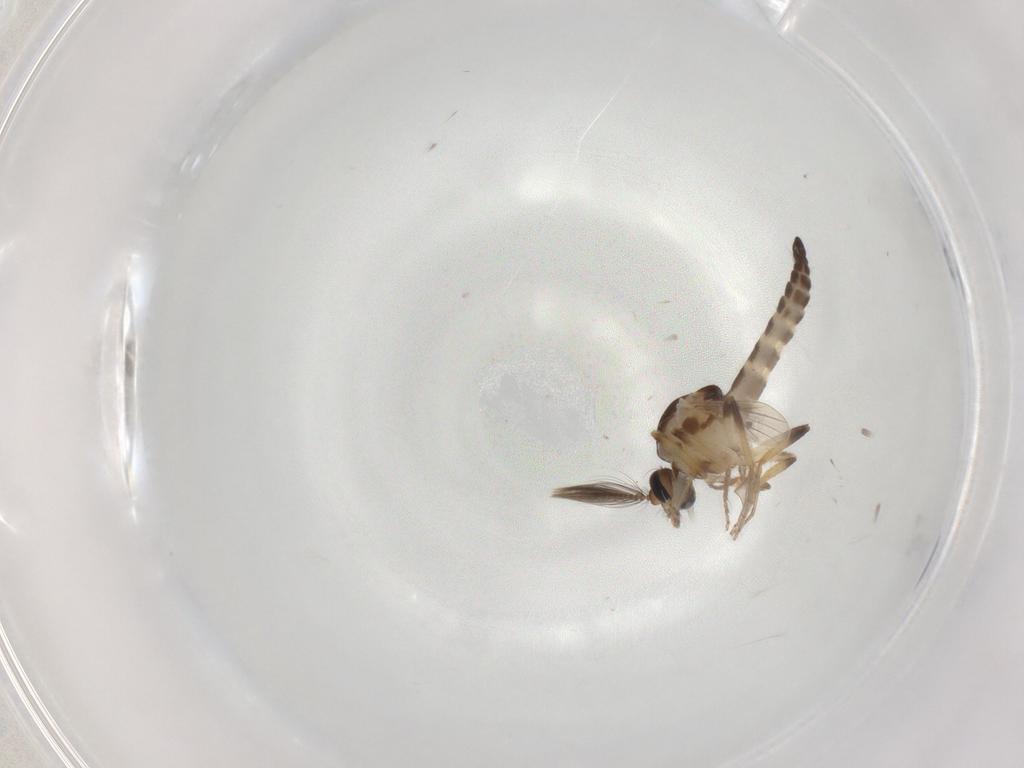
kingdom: Animalia
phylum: Arthropoda
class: Insecta
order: Diptera
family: Ceratopogonidae
